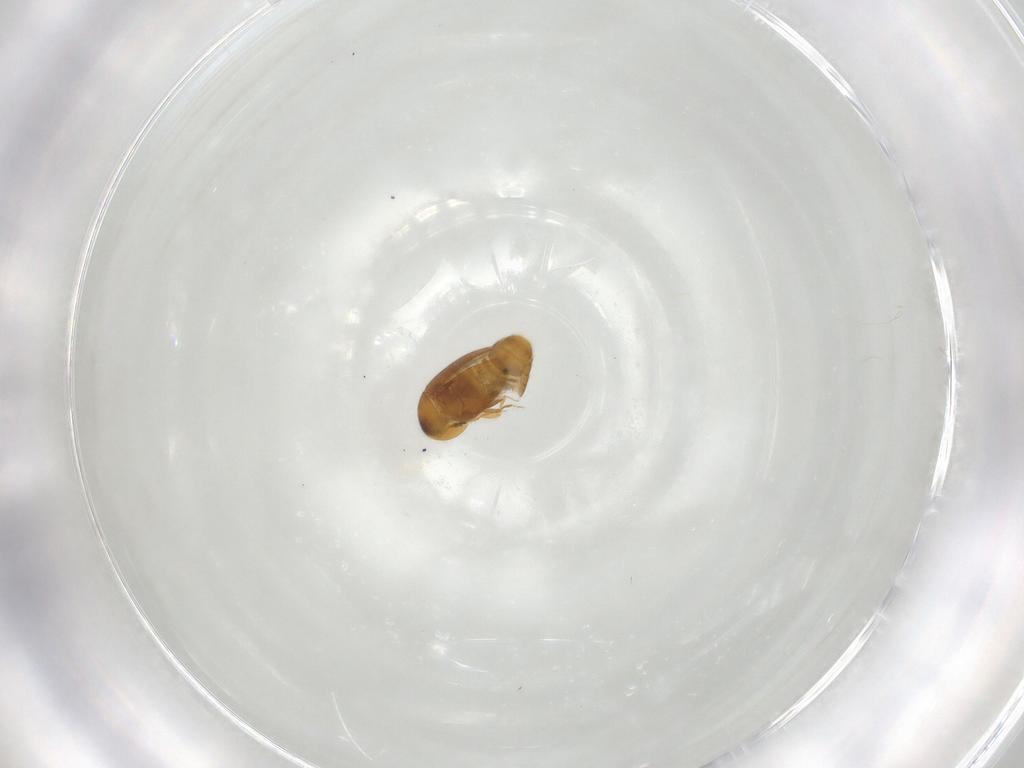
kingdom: Animalia
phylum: Arthropoda
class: Insecta
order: Coleoptera
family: Corylophidae
